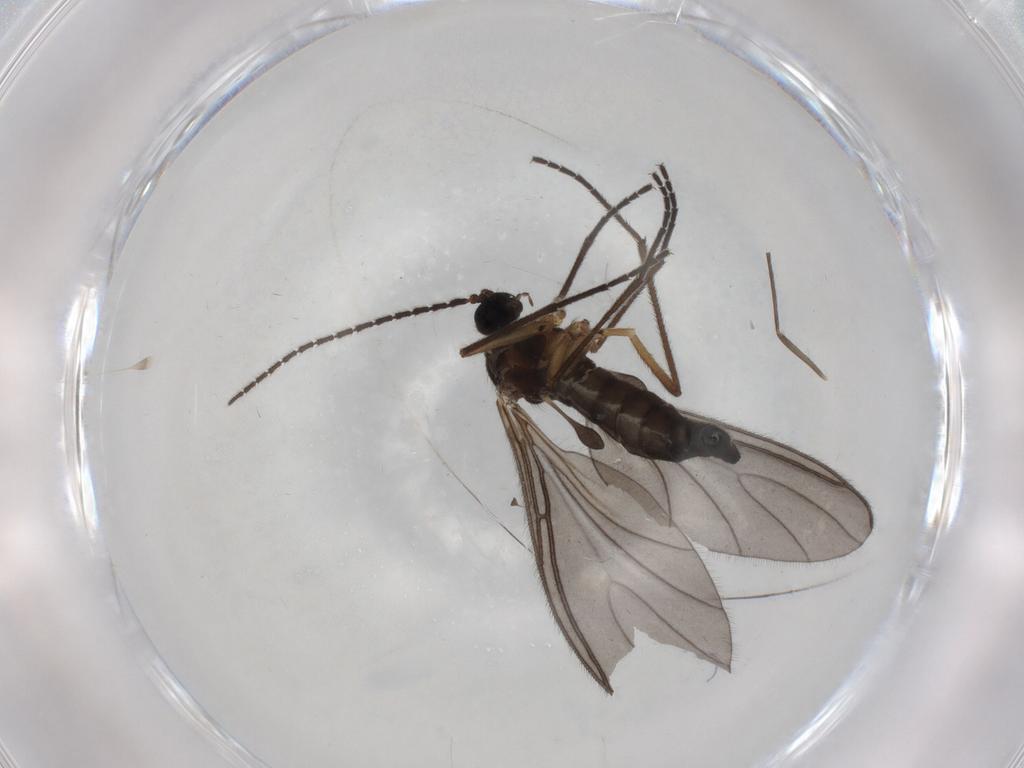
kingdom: Animalia
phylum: Arthropoda
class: Insecta
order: Diptera
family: Sciaridae
